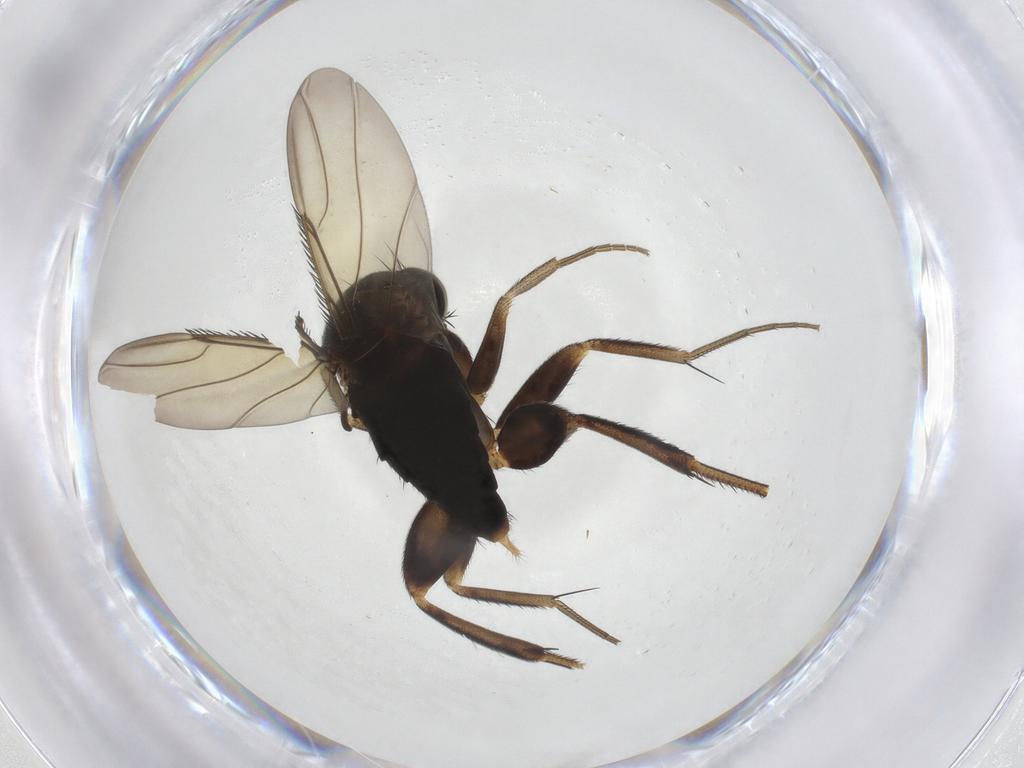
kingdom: Animalia
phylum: Arthropoda
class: Insecta
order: Diptera
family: Phoridae
